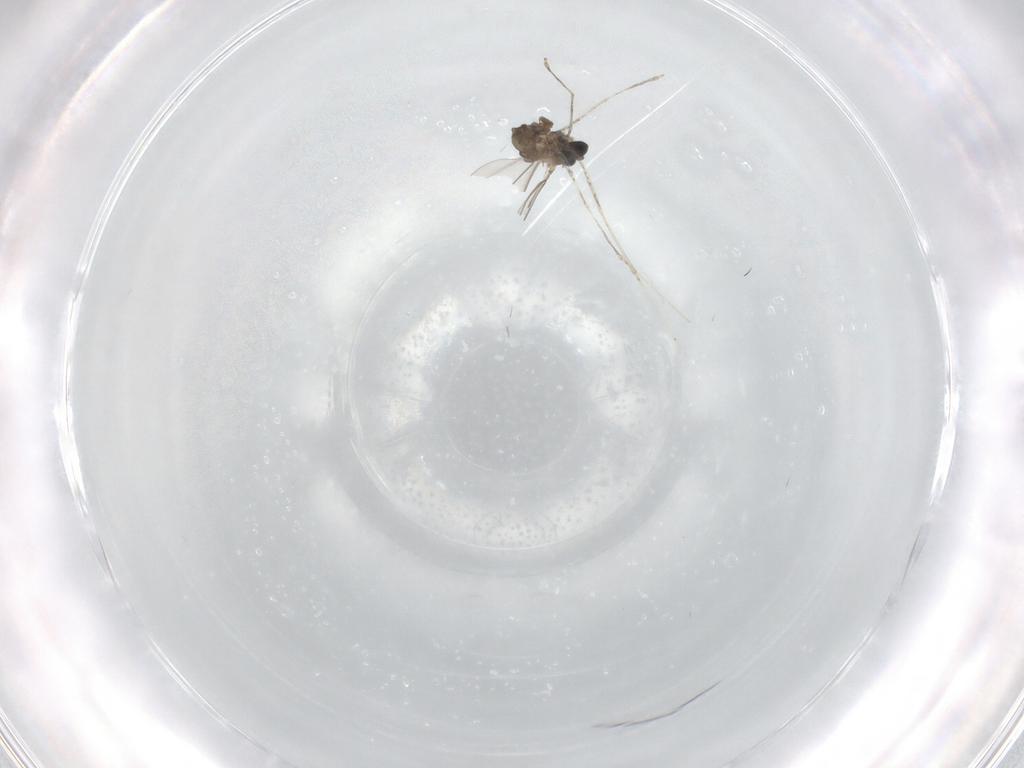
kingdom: Animalia
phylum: Arthropoda
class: Insecta
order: Diptera
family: Cecidomyiidae
